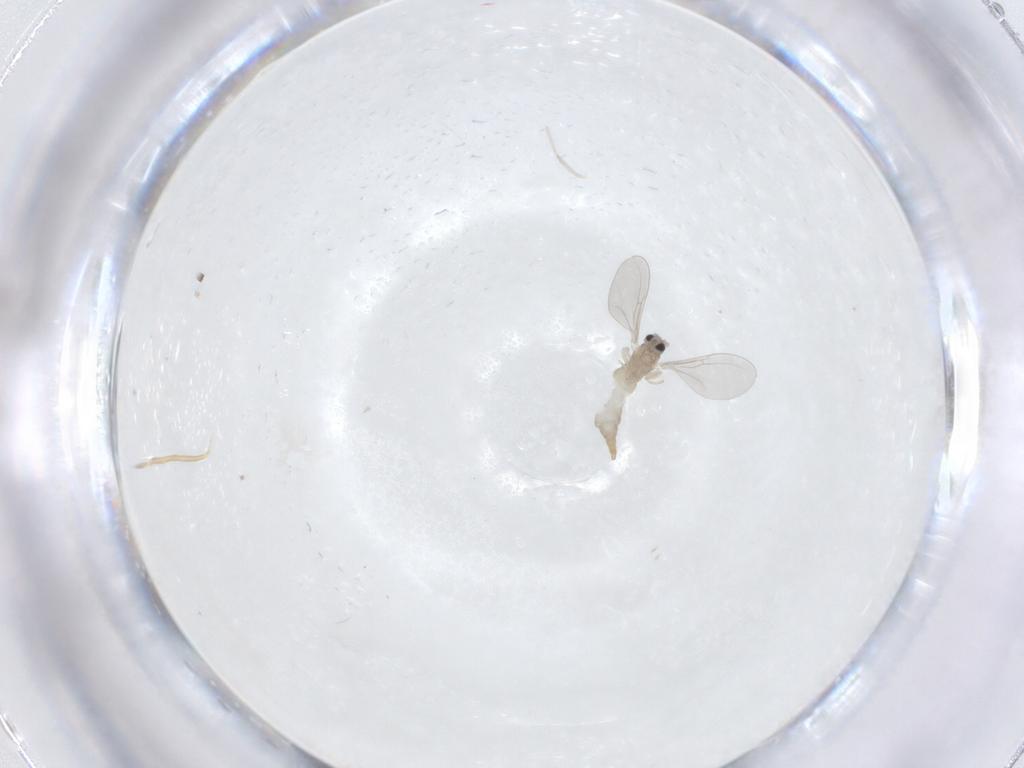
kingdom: Animalia
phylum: Arthropoda
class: Insecta
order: Diptera
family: Cecidomyiidae
